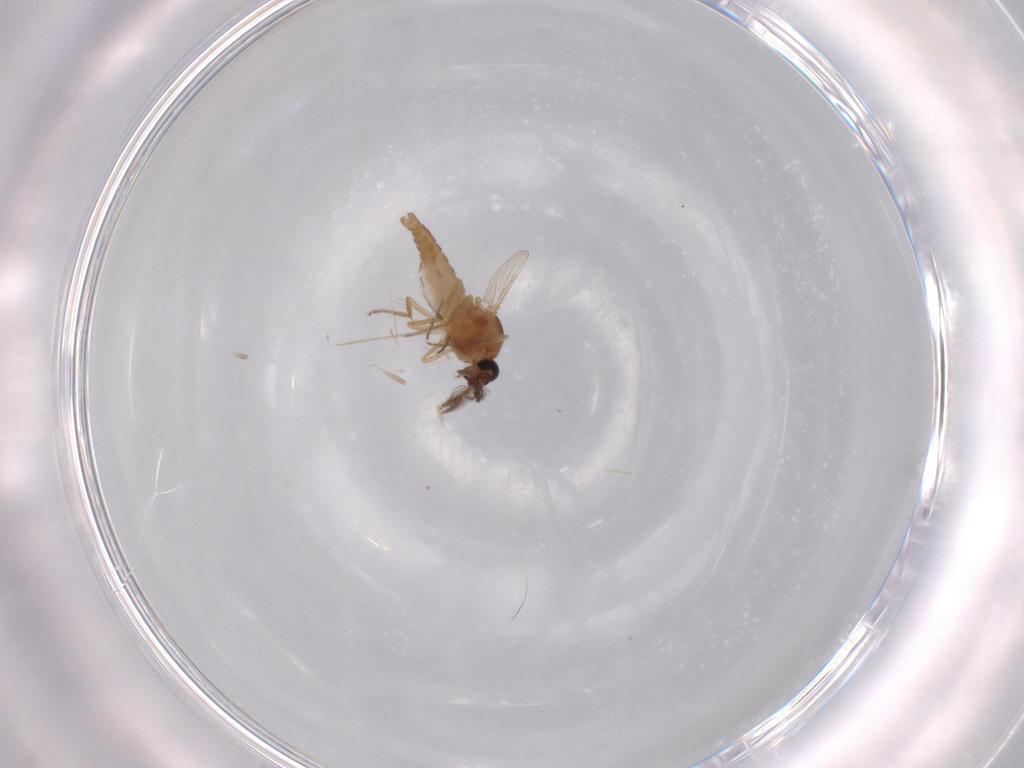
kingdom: Animalia
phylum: Arthropoda
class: Insecta
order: Diptera
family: Ceratopogonidae
